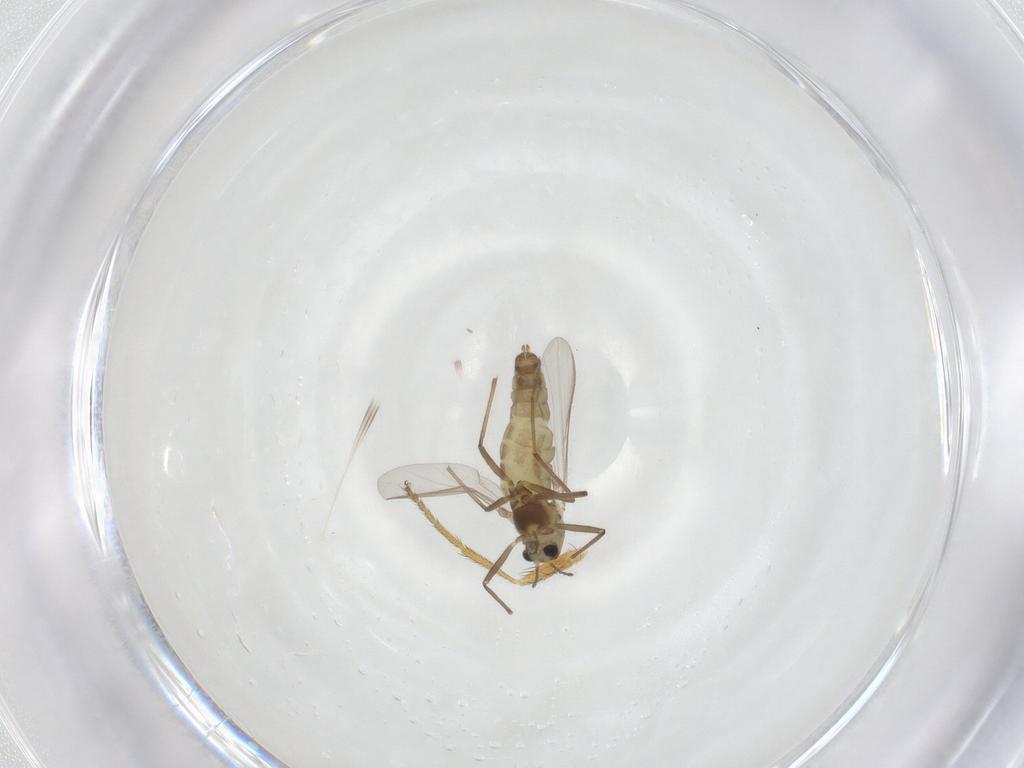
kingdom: Animalia
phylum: Arthropoda
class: Insecta
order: Diptera
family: Chironomidae
